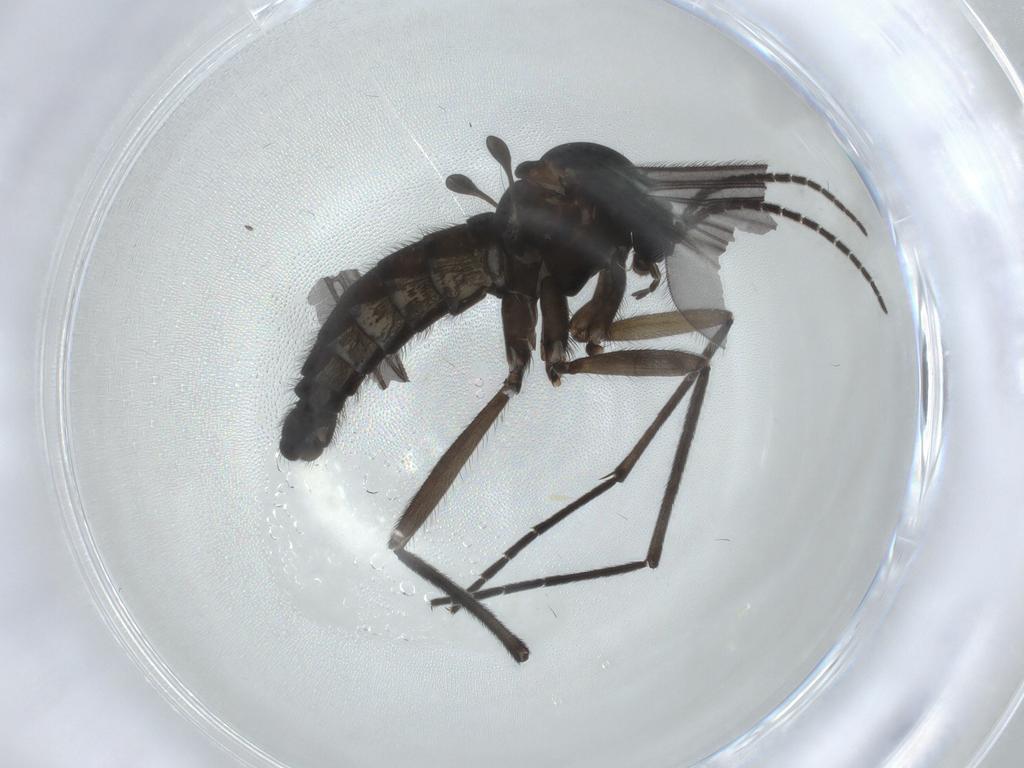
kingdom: Animalia
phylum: Arthropoda
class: Insecta
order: Diptera
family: Sciaridae
